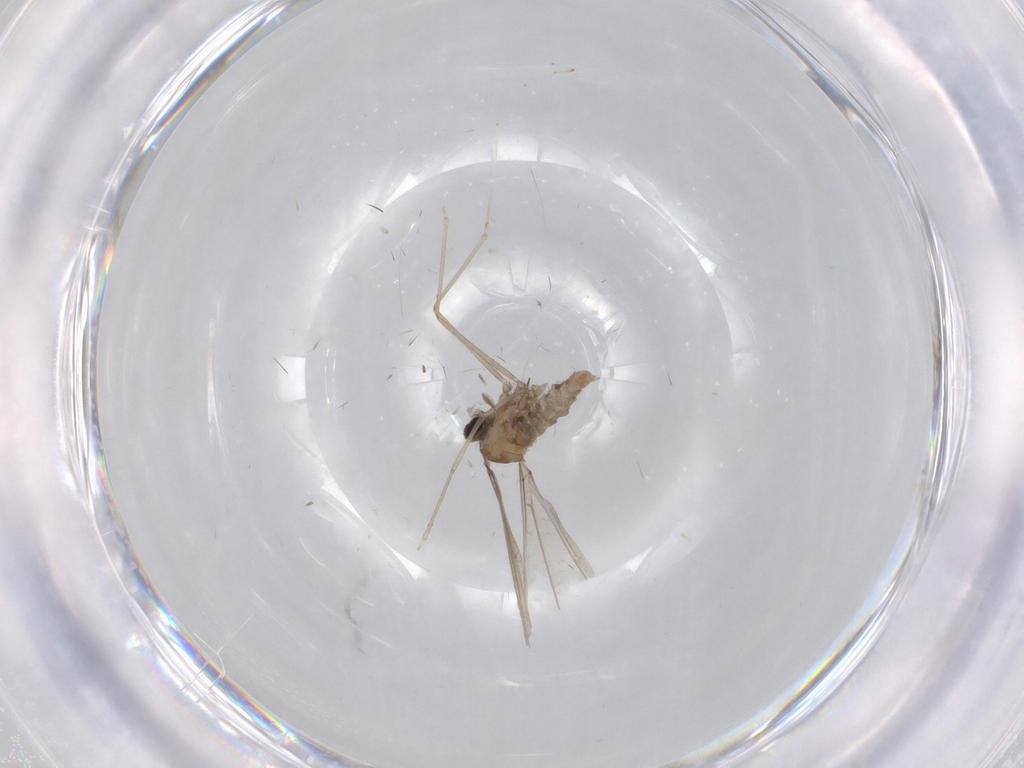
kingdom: Animalia
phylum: Arthropoda
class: Insecta
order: Diptera
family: Cecidomyiidae
